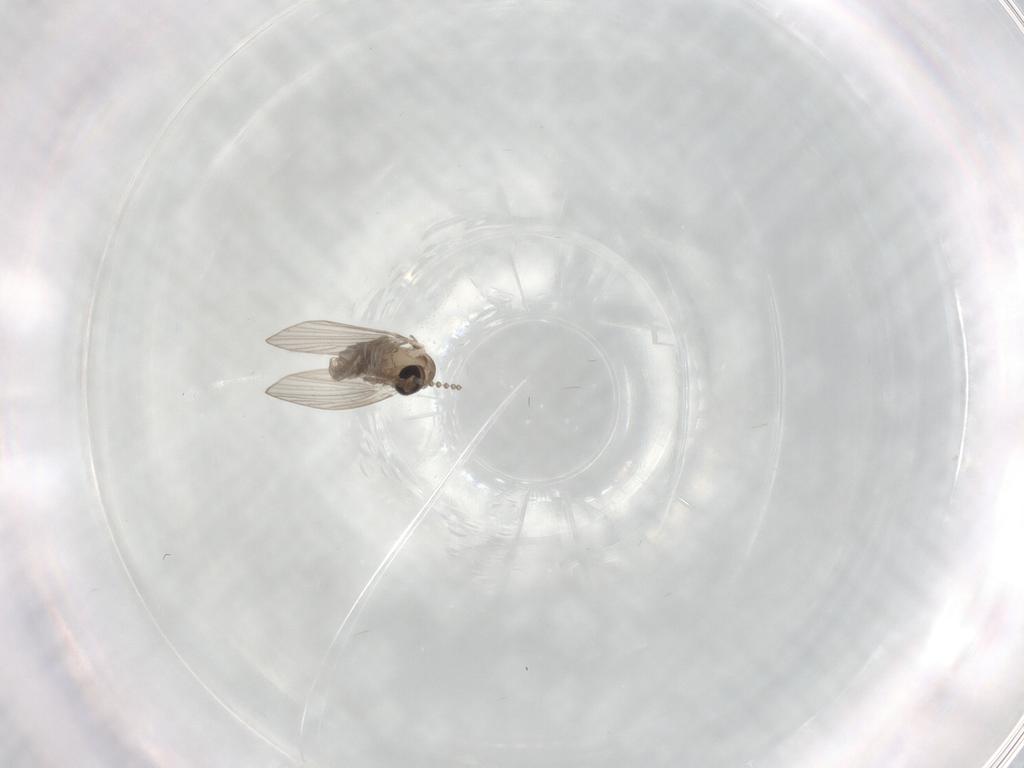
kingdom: Animalia
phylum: Arthropoda
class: Insecta
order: Diptera
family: Psychodidae
